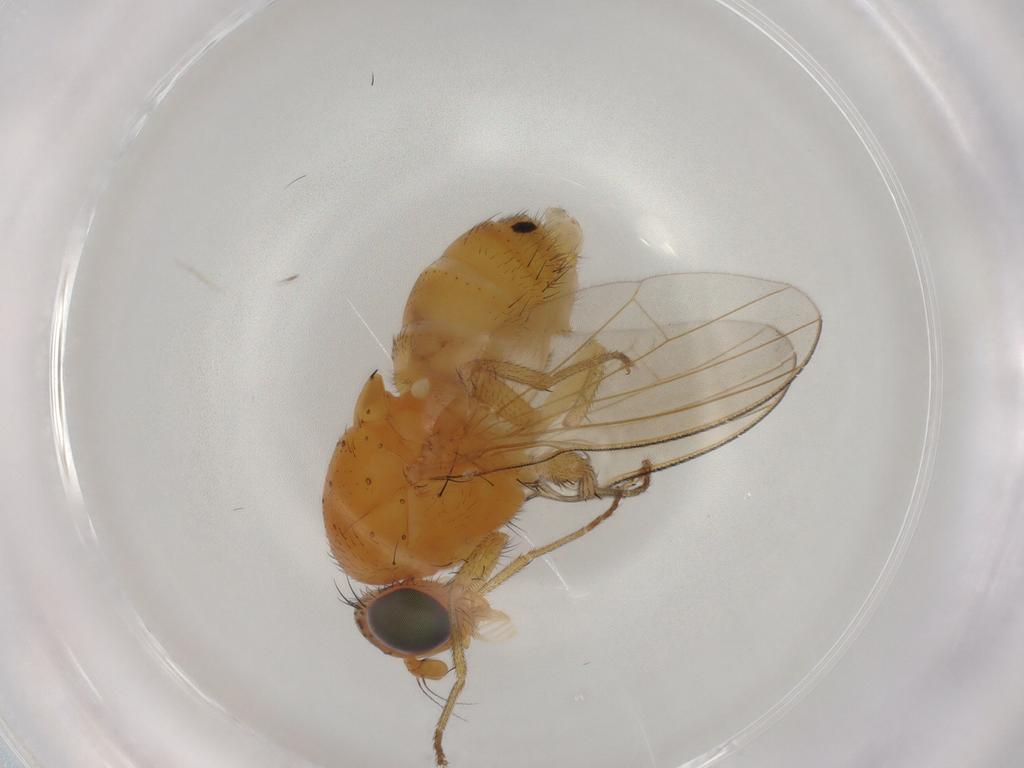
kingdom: Animalia
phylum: Arthropoda
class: Insecta
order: Diptera
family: Lauxaniidae
